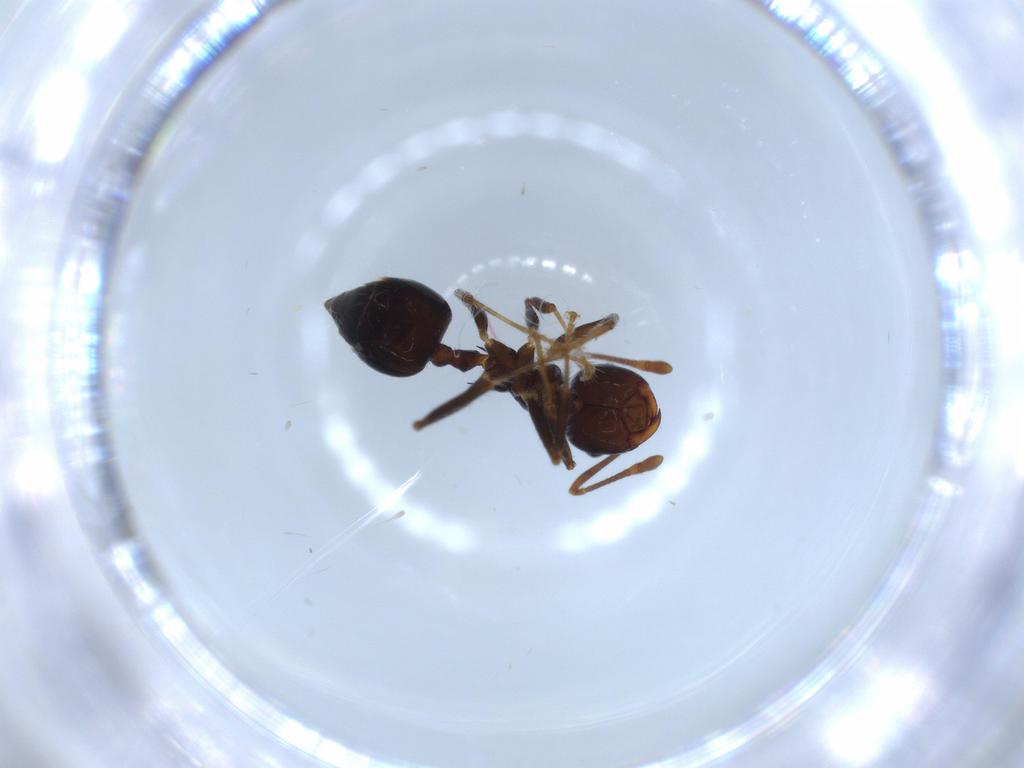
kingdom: Animalia
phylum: Arthropoda
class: Insecta
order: Hymenoptera
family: Formicidae
